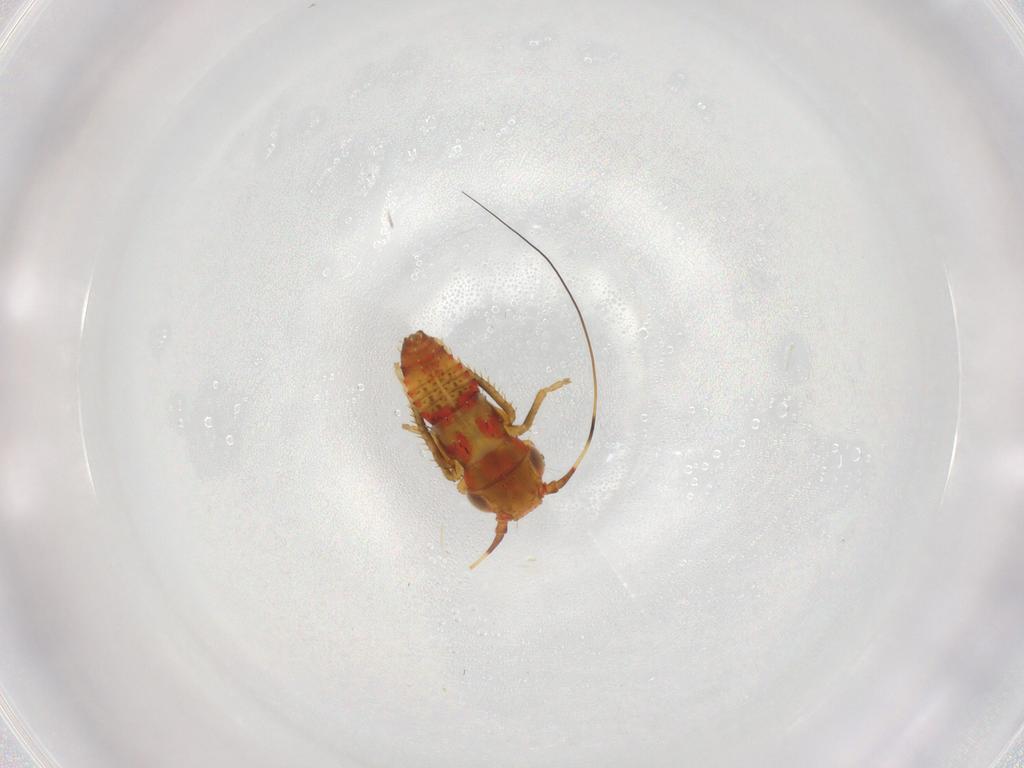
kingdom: Animalia
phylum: Arthropoda
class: Insecta
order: Hemiptera
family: Cicadellidae
